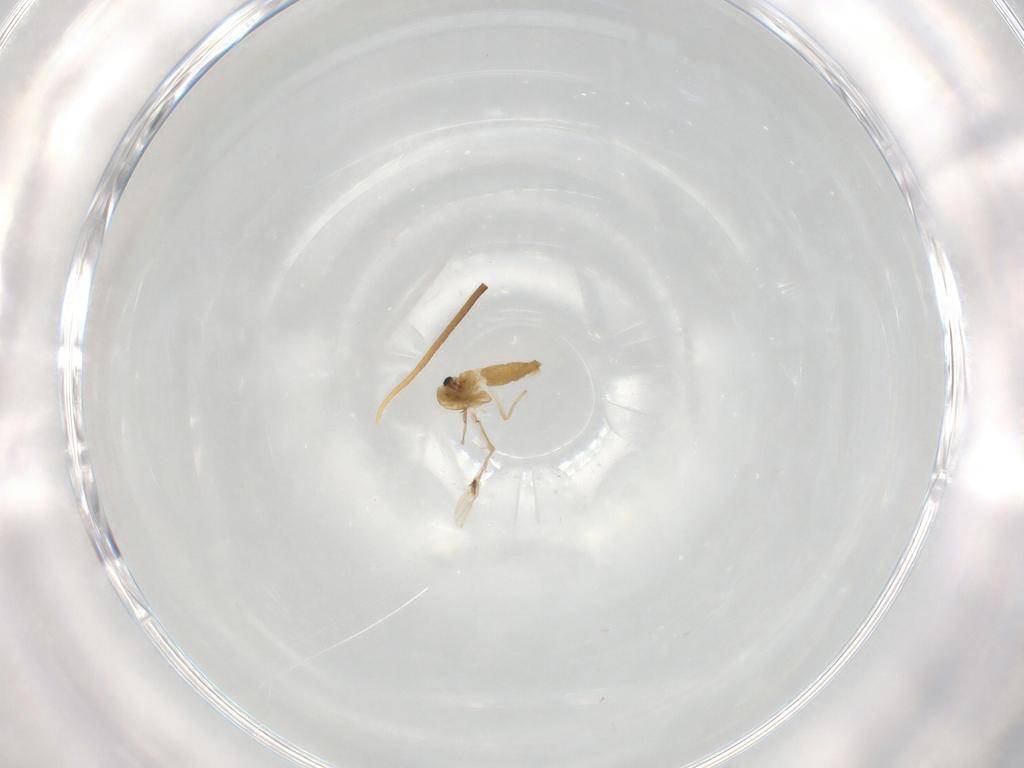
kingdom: Animalia
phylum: Arthropoda
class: Insecta
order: Diptera
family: Chironomidae
